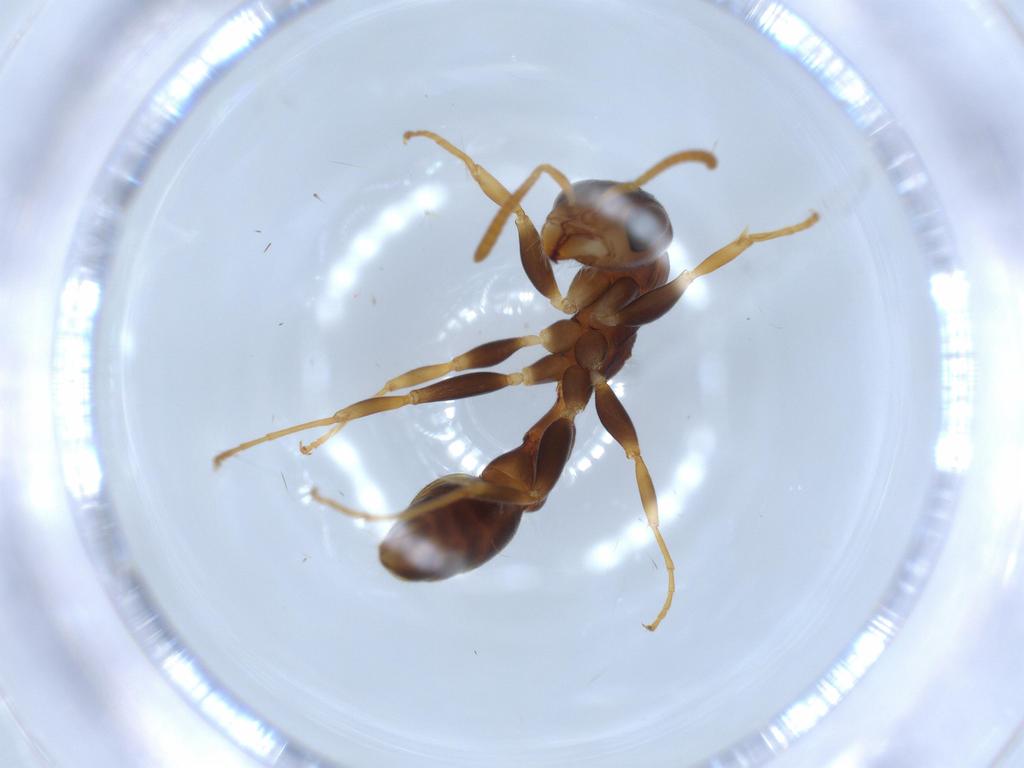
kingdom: Animalia
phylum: Arthropoda
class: Insecta
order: Hymenoptera
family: Formicidae
